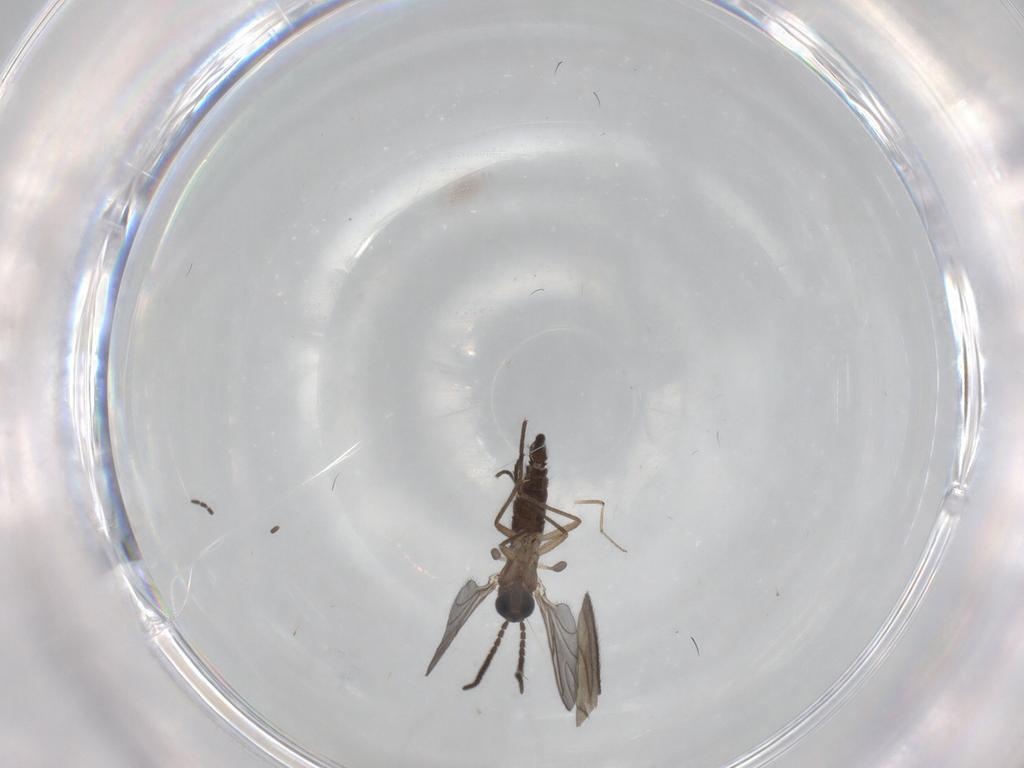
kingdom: Animalia
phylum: Arthropoda
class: Insecta
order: Diptera
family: Sciaridae
